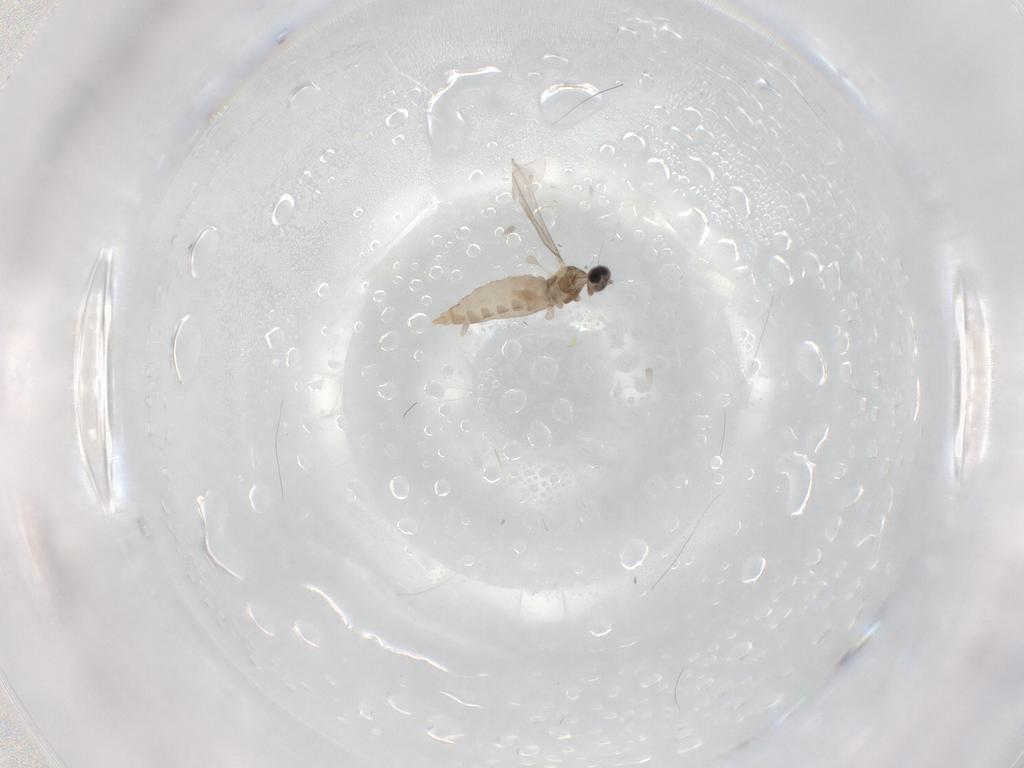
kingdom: Animalia
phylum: Arthropoda
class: Insecta
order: Diptera
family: Cecidomyiidae
